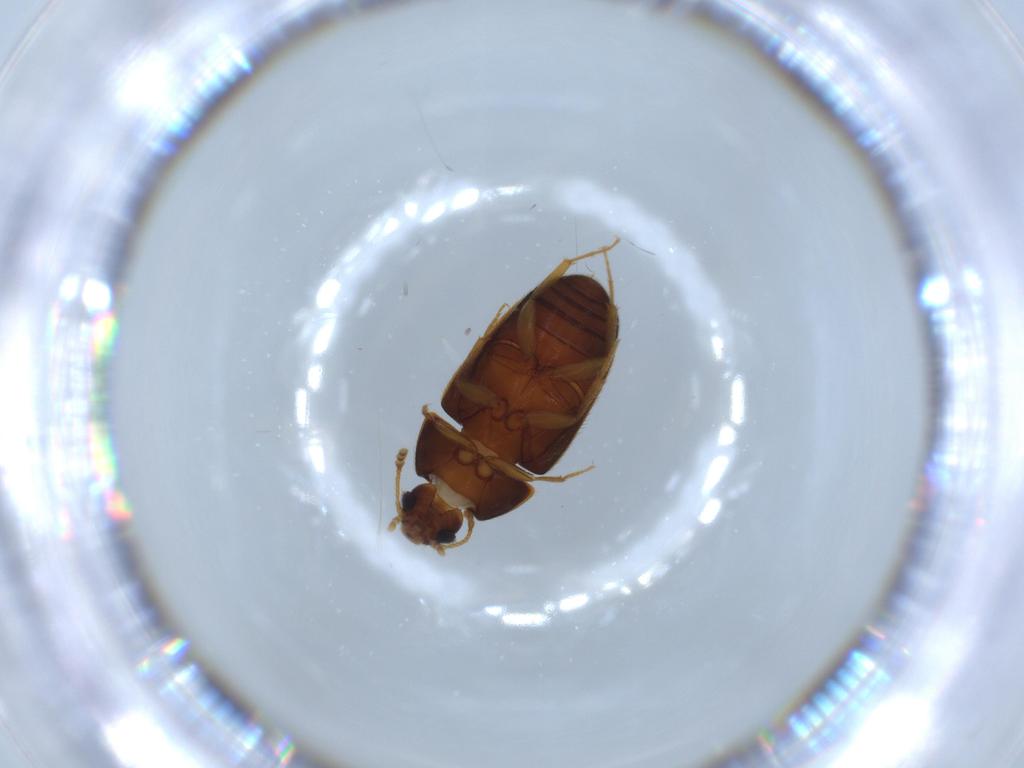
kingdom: Animalia
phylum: Arthropoda
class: Insecta
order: Coleoptera
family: Mycetophagidae
